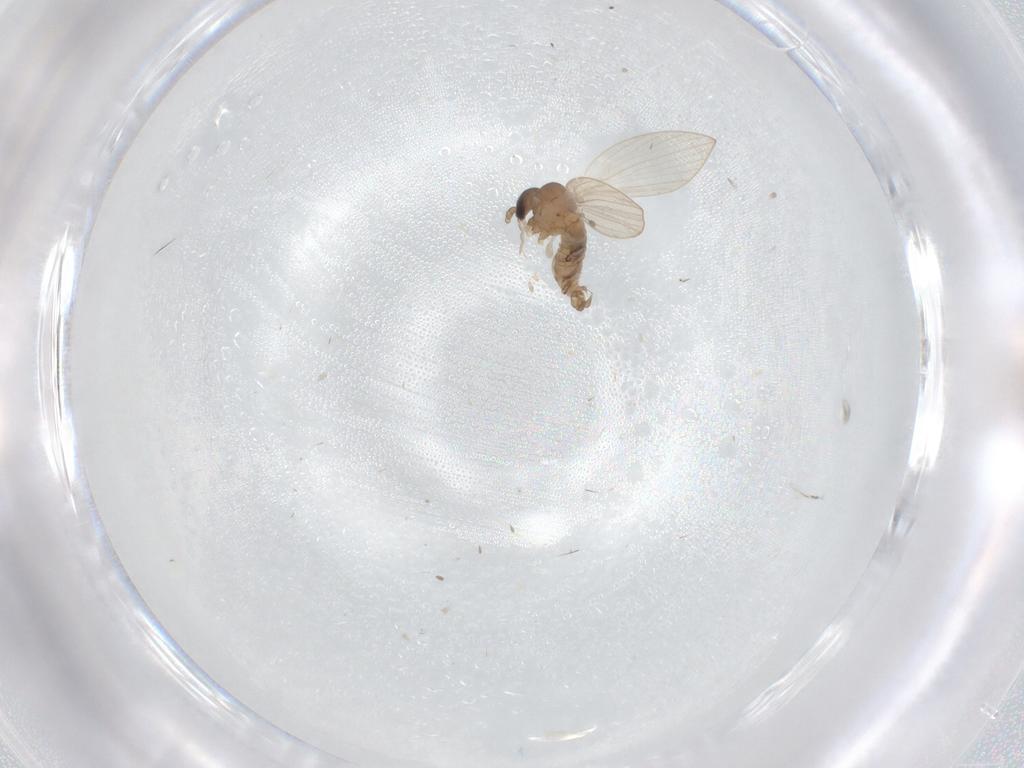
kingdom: Animalia
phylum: Arthropoda
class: Insecta
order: Diptera
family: Psychodidae
